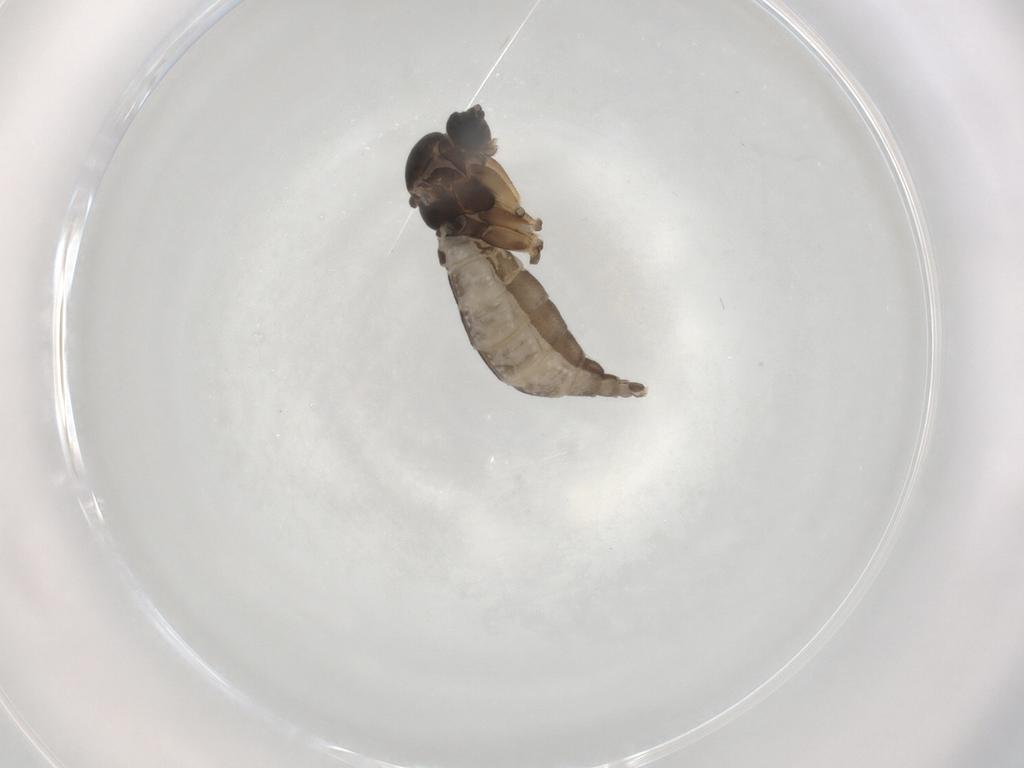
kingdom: Animalia
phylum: Arthropoda
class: Insecta
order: Diptera
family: Sciaridae
